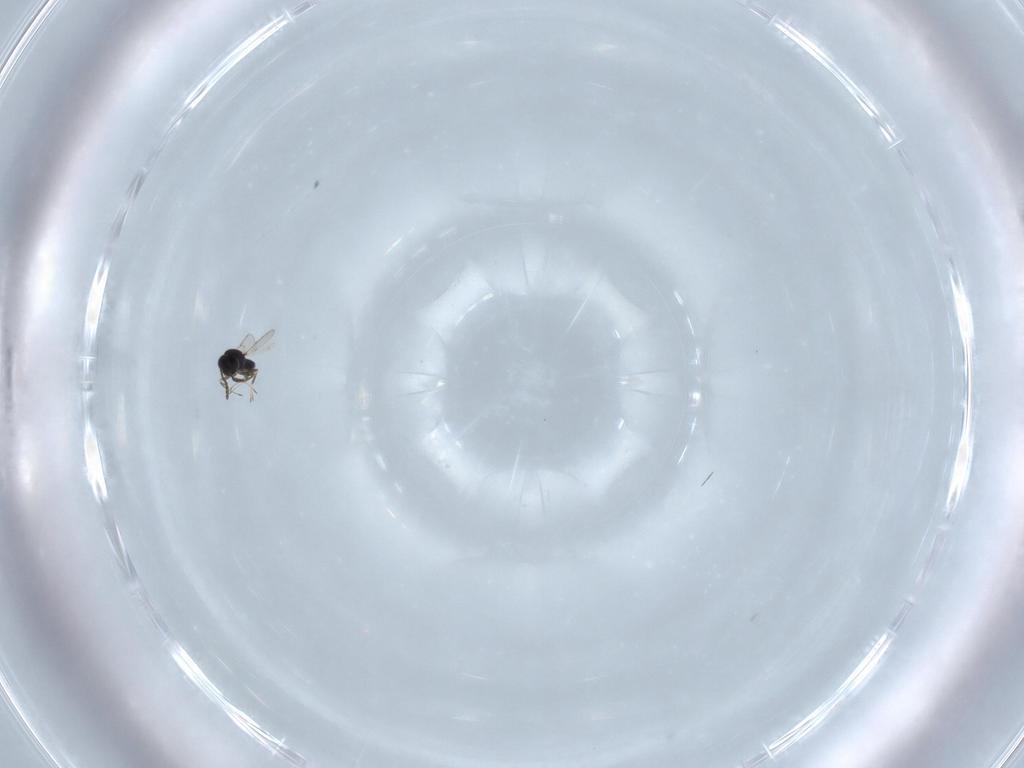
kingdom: Animalia
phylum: Arthropoda
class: Insecta
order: Hymenoptera
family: Scelionidae
